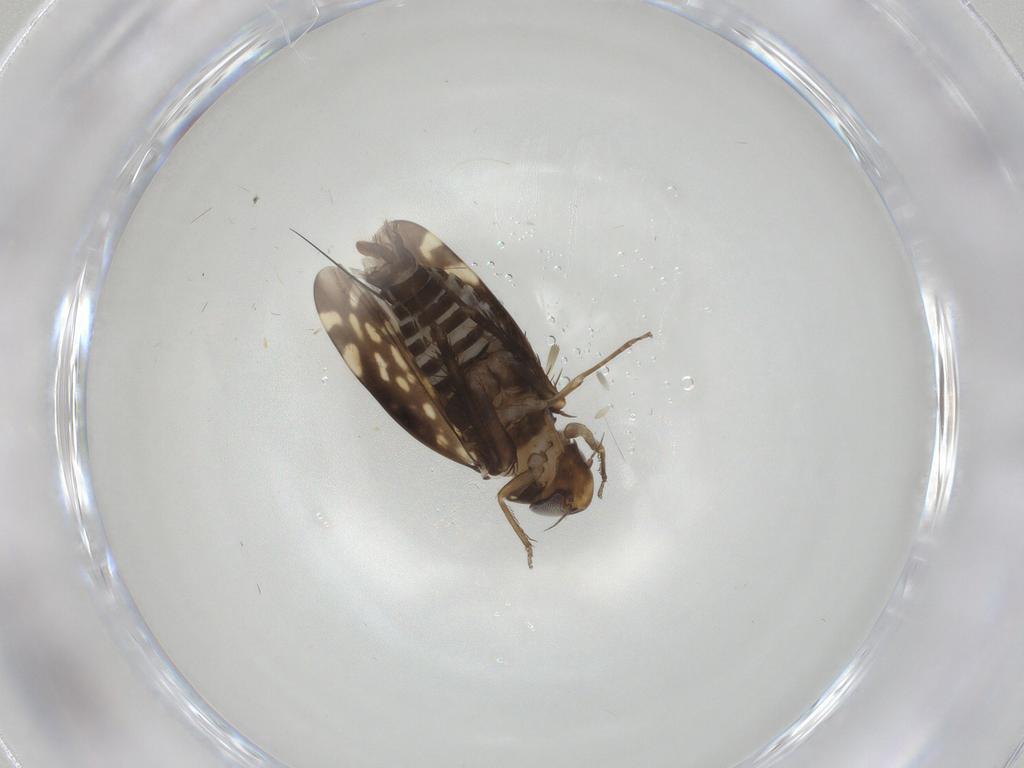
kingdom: Animalia
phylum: Arthropoda
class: Insecta
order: Hemiptera
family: Cicadellidae
